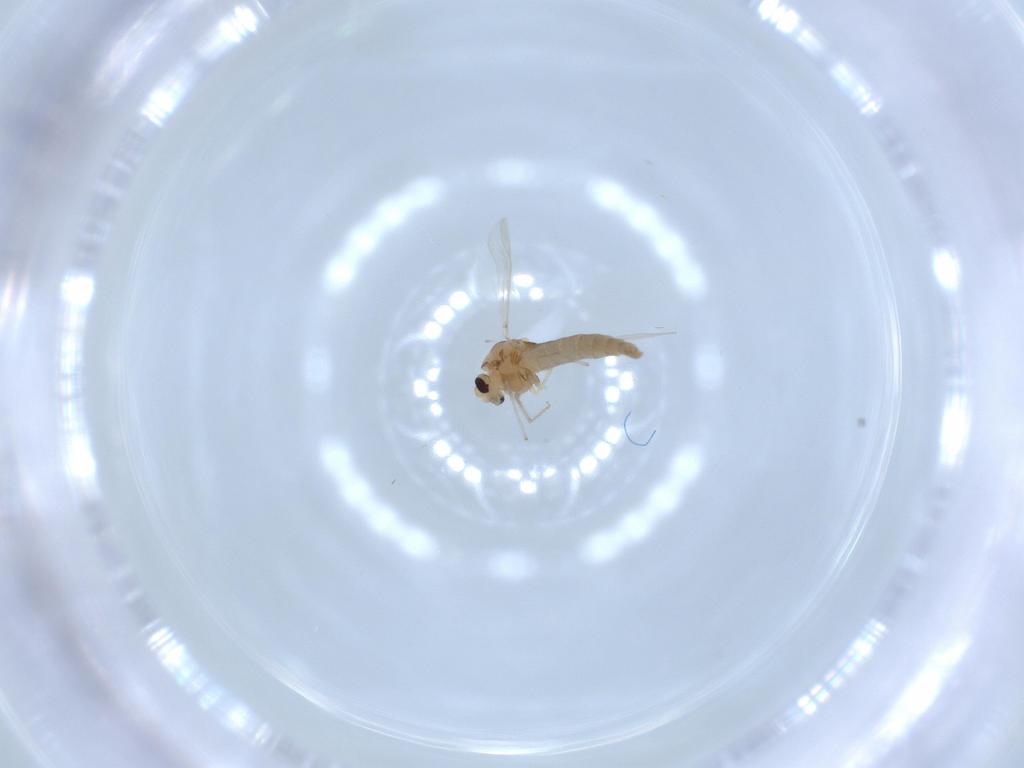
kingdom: Animalia
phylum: Arthropoda
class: Insecta
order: Diptera
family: Chironomidae
